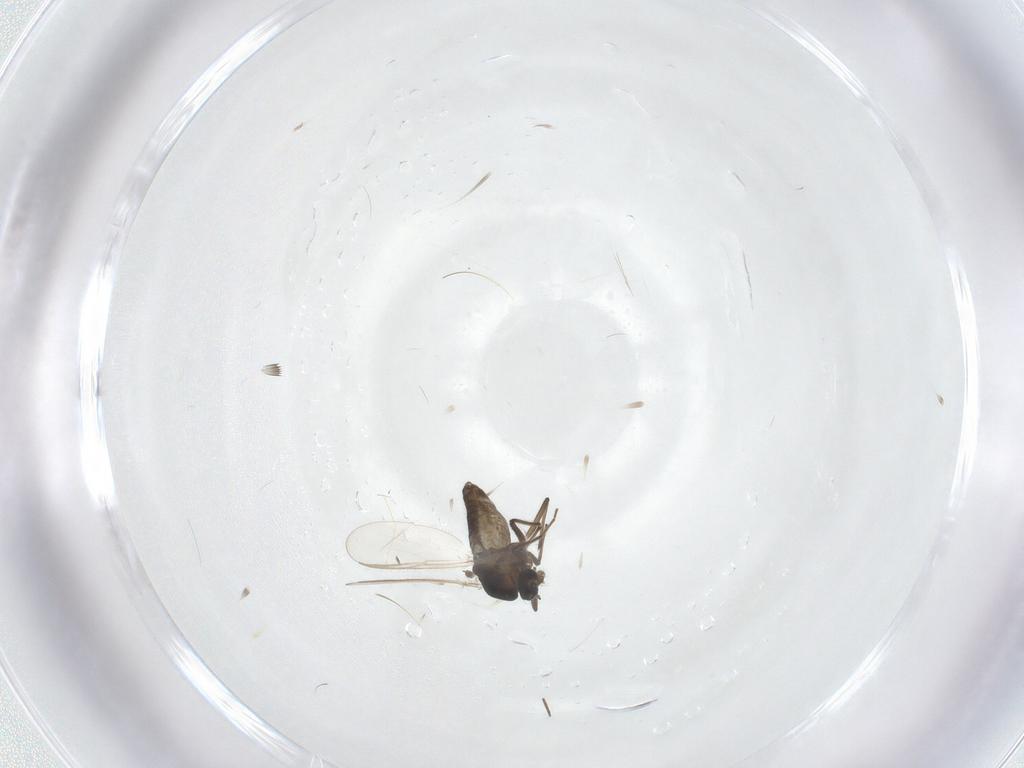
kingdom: Animalia
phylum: Arthropoda
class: Insecta
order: Diptera
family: Chironomidae
